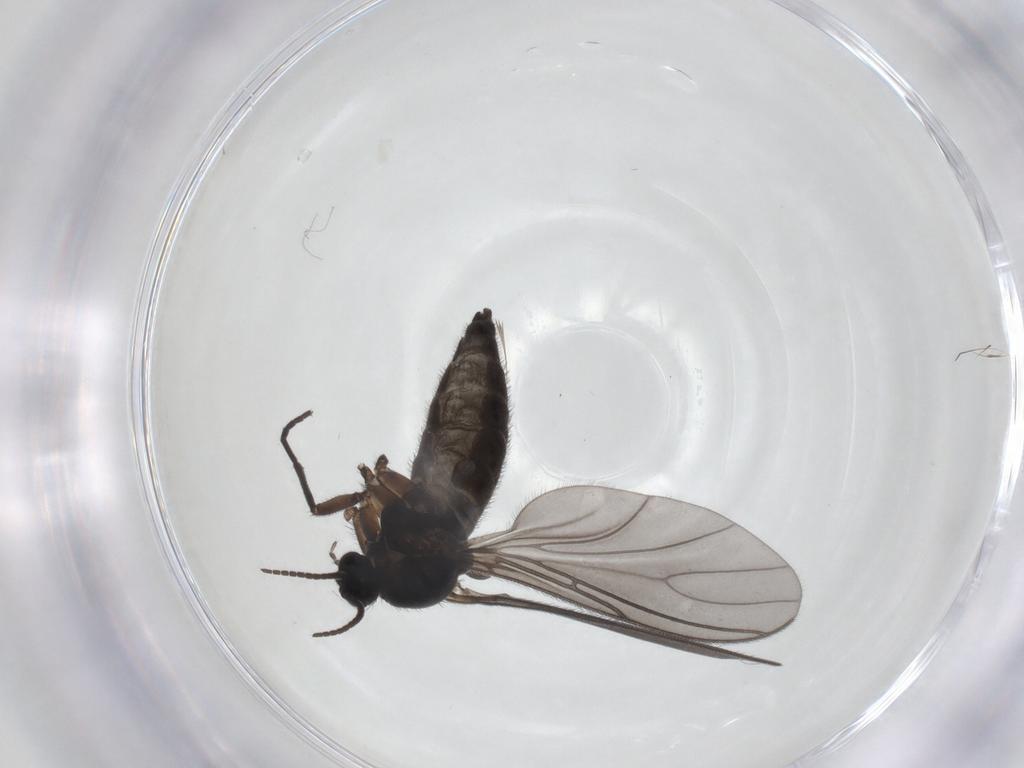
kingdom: Animalia
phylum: Arthropoda
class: Insecta
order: Diptera
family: Sciaridae
